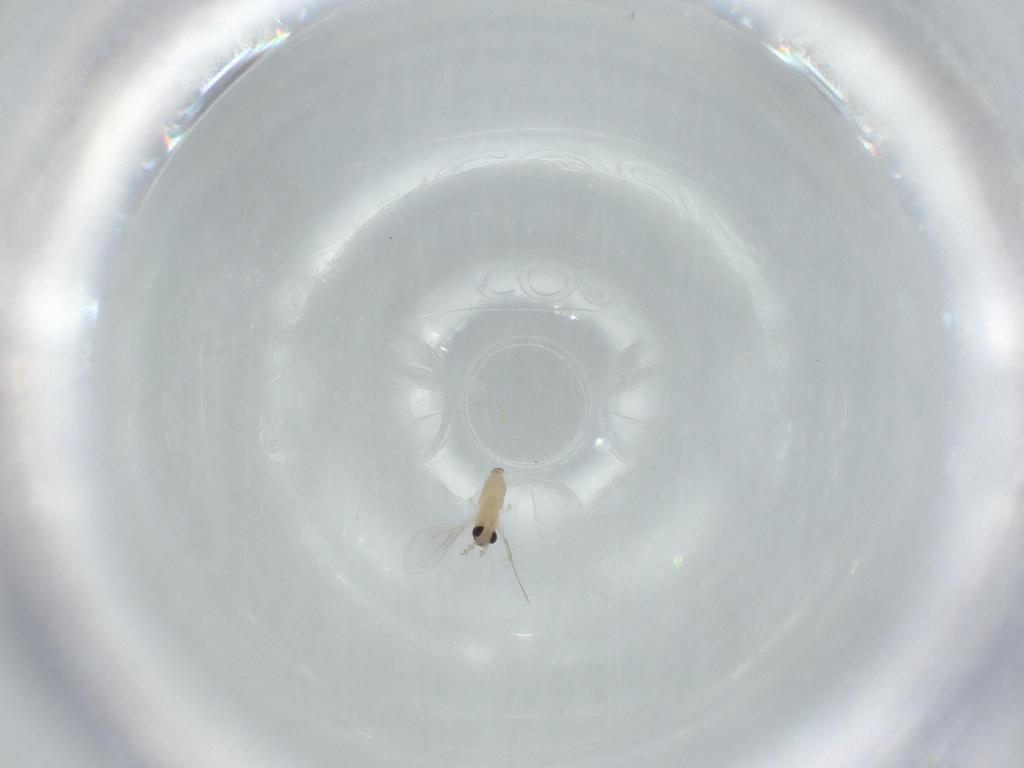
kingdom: Animalia
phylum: Arthropoda
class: Insecta
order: Diptera
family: Sciaridae
